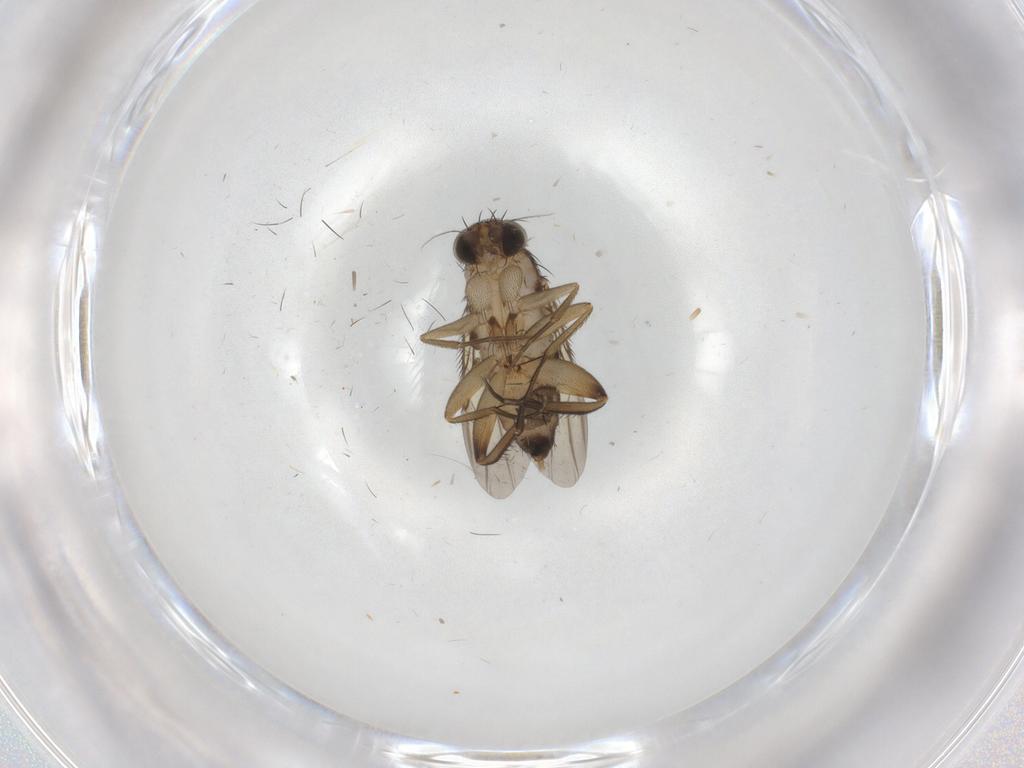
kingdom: Animalia
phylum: Arthropoda
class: Insecta
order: Diptera
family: Phoridae
